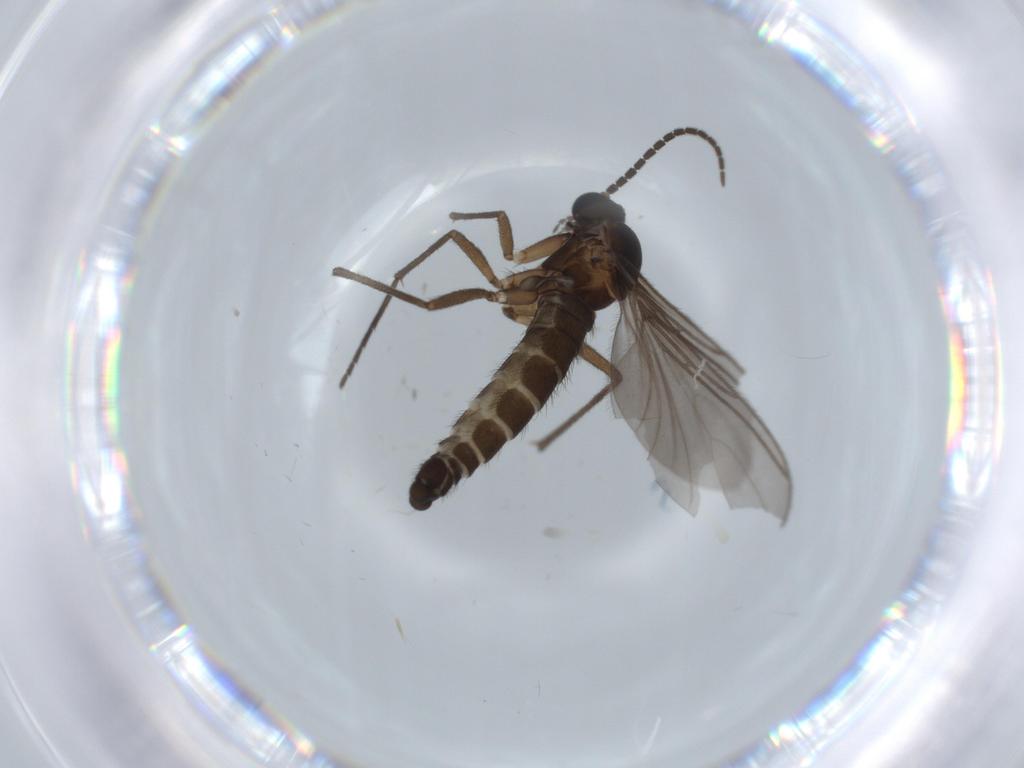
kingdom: Animalia
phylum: Arthropoda
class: Insecta
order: Diptera
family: Sciaridae
